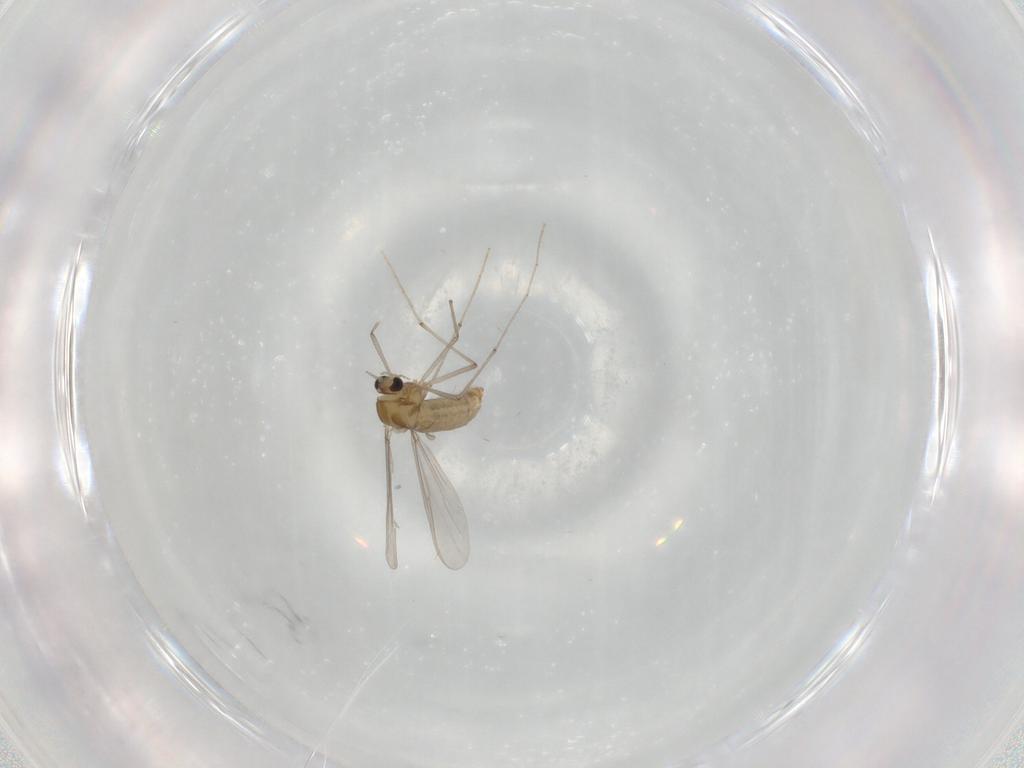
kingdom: Animalia
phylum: Arthropoda
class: Insecta
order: Diptera
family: Chironomidae
